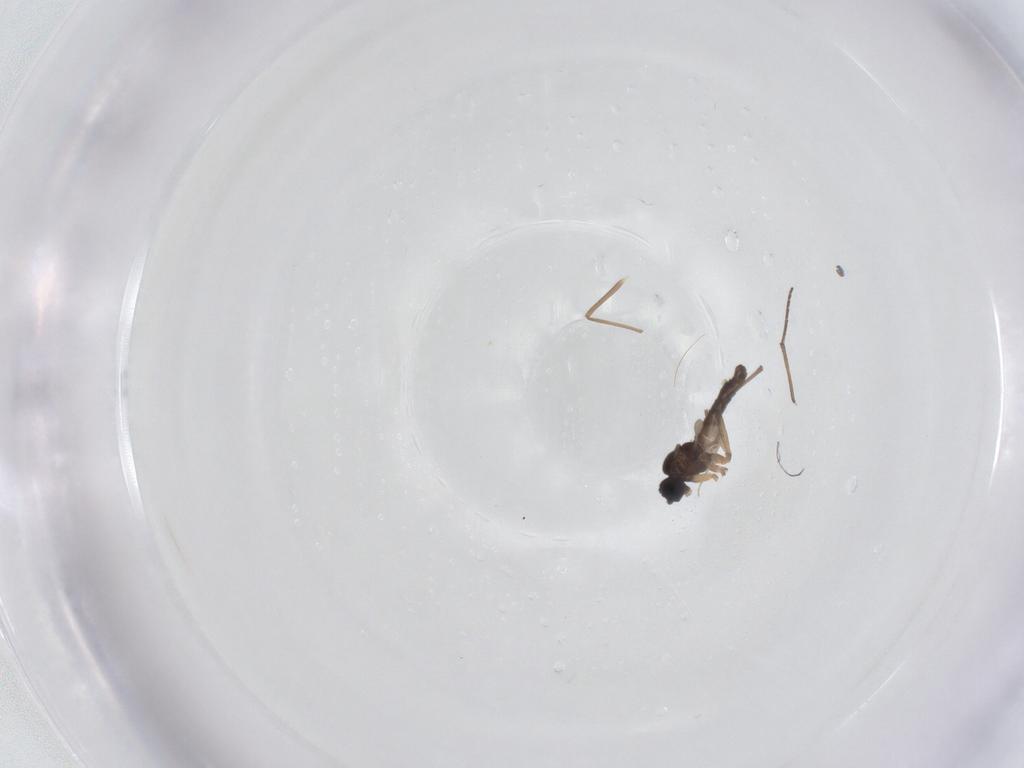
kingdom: Animalia
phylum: Arthropoda
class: Insecta
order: Diptera
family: Sciaridae
